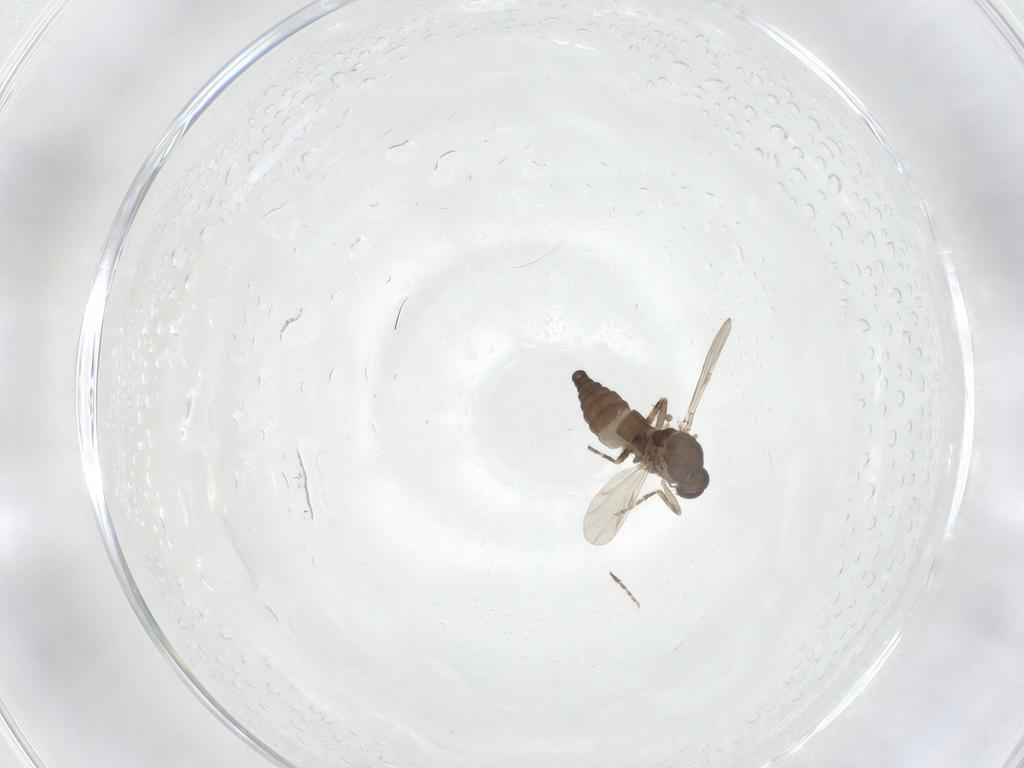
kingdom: Animalia
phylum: Arthropoda
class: Insecta
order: Diptera
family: Ceratopogonidae
